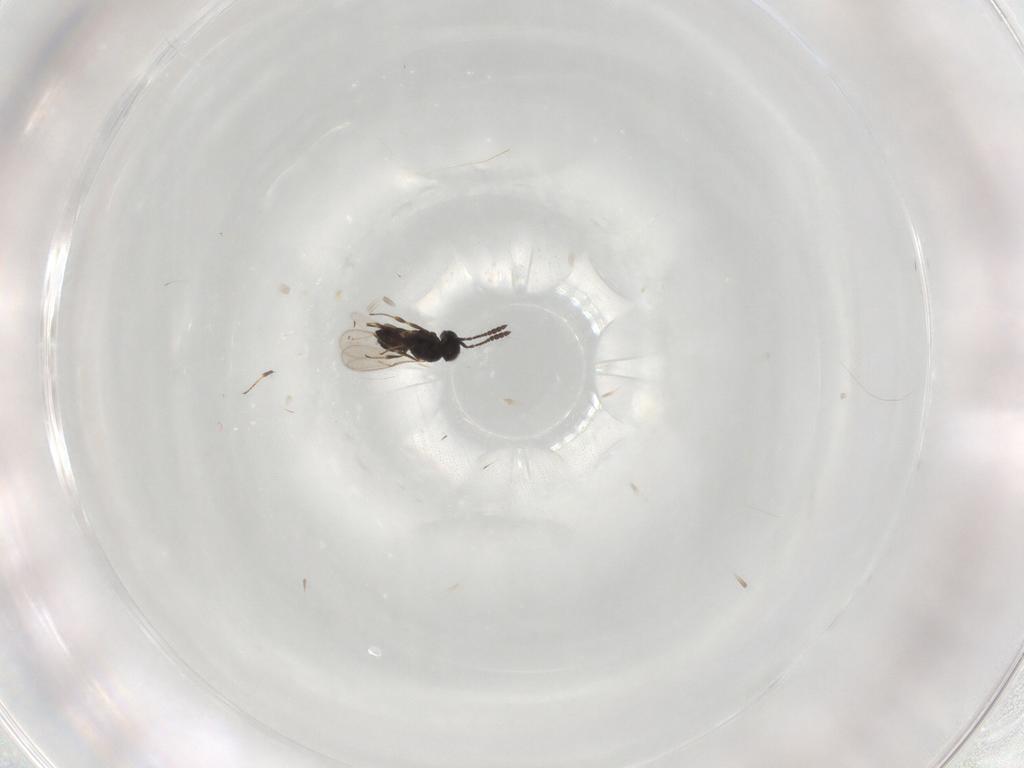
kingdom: Animalia
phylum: Arthropoda
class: Insecta
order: Hymenoptera
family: Scelionidae
